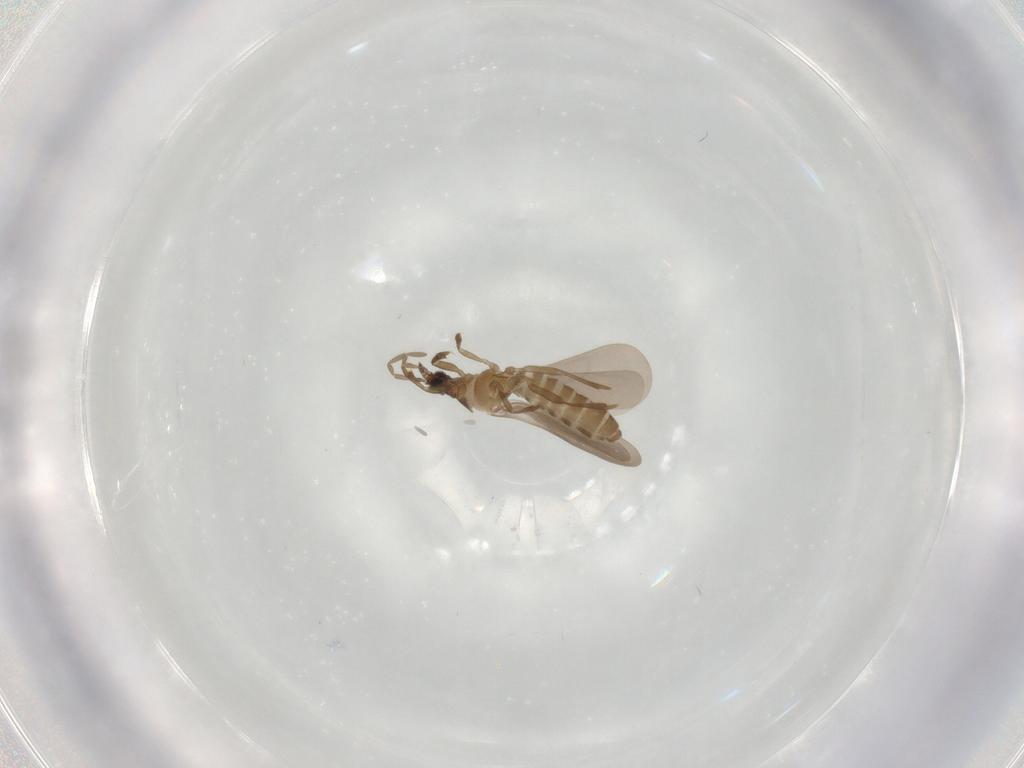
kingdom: Animalia
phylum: Arthropoda
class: Insecta
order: Hemiptera
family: Enicocephalidae
